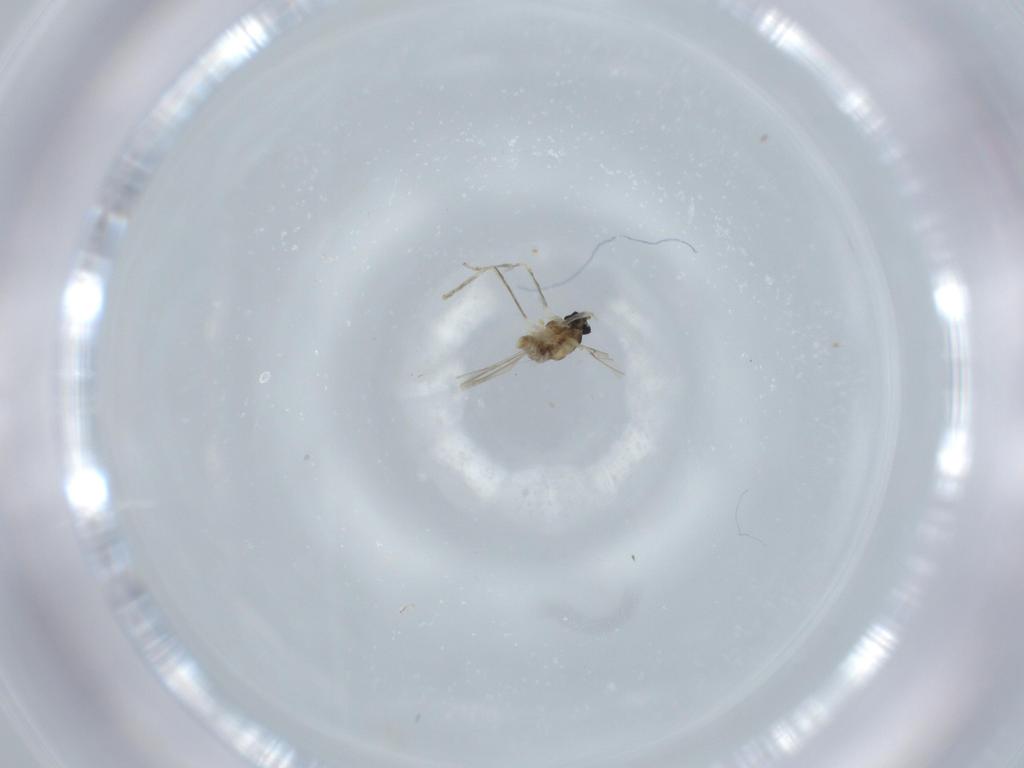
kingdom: Animalia
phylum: Arthropoda
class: Insecta
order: Diptera
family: Cecidomyiidae
